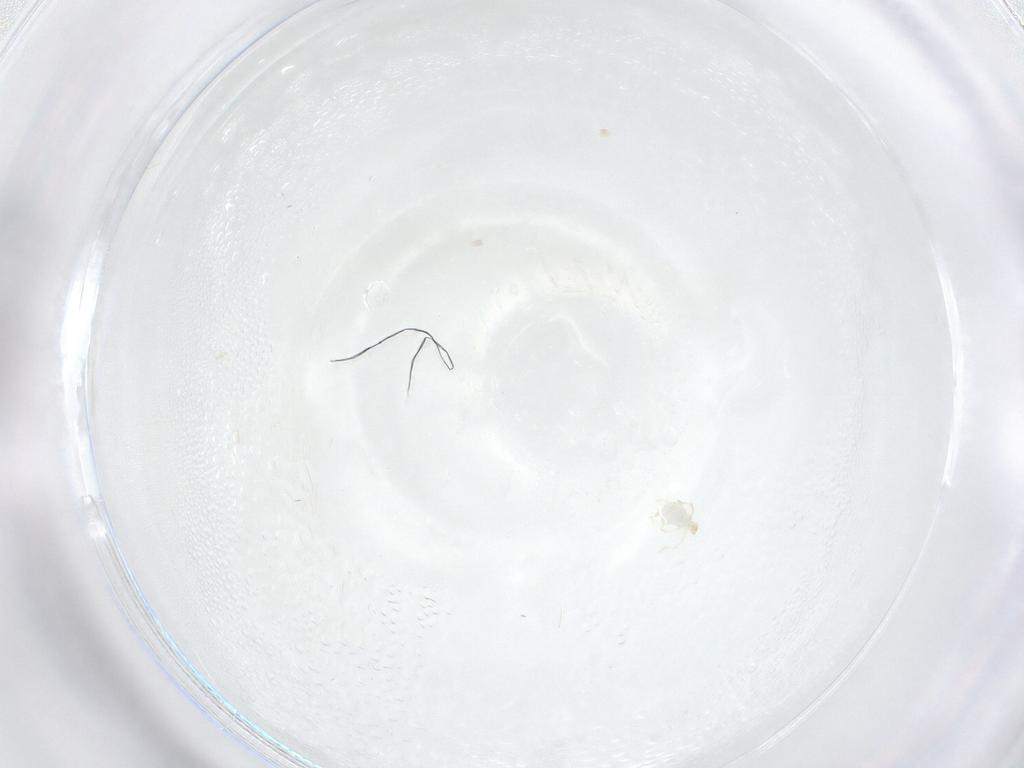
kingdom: Animalia
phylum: Arthropoda
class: Arachnida
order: Trombidiformes
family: Erythraeidae
